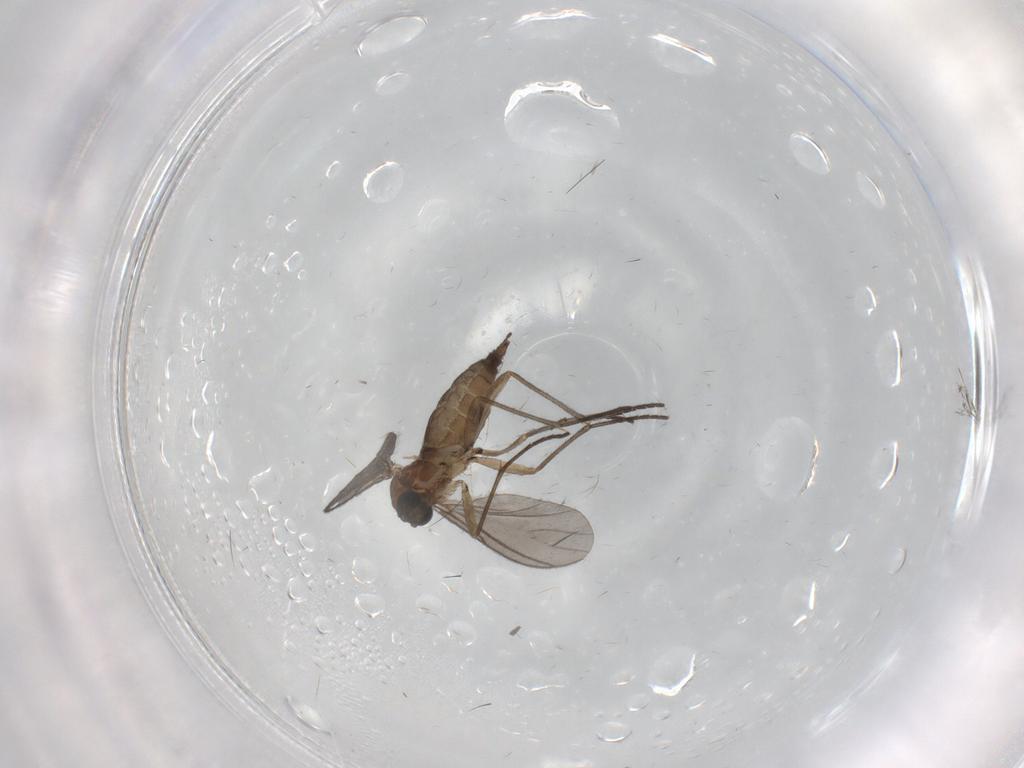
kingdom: Animalia
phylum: Arthropoda
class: Insecta
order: Diptera
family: Cecidomyiidae
